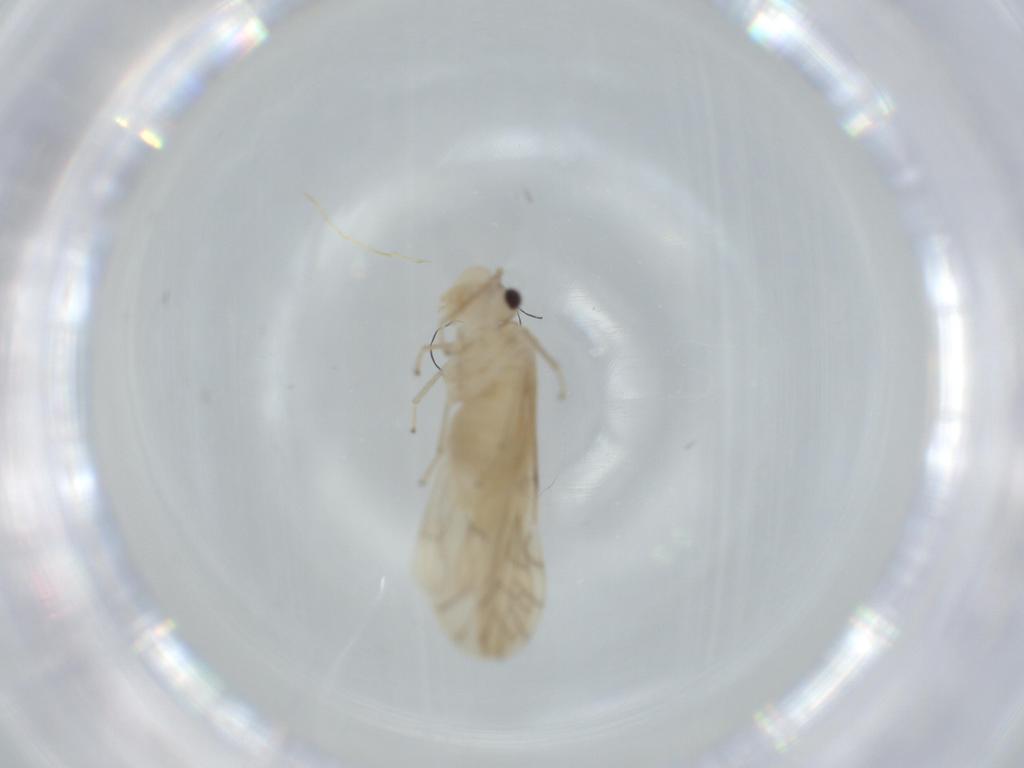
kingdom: Animalia
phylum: Arthropoda
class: Insecta
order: Psocodea
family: Caeciliusidae
